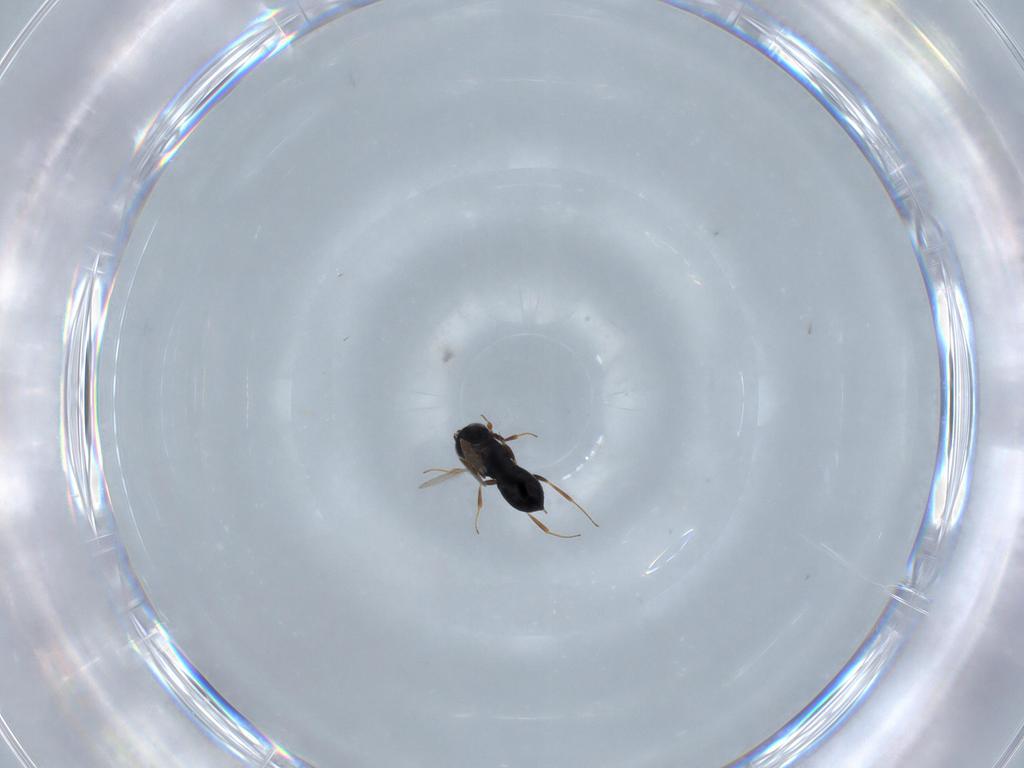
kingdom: Animalia
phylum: Arthropoda
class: Insecta
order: Hymenoptera
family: Scelionidae
